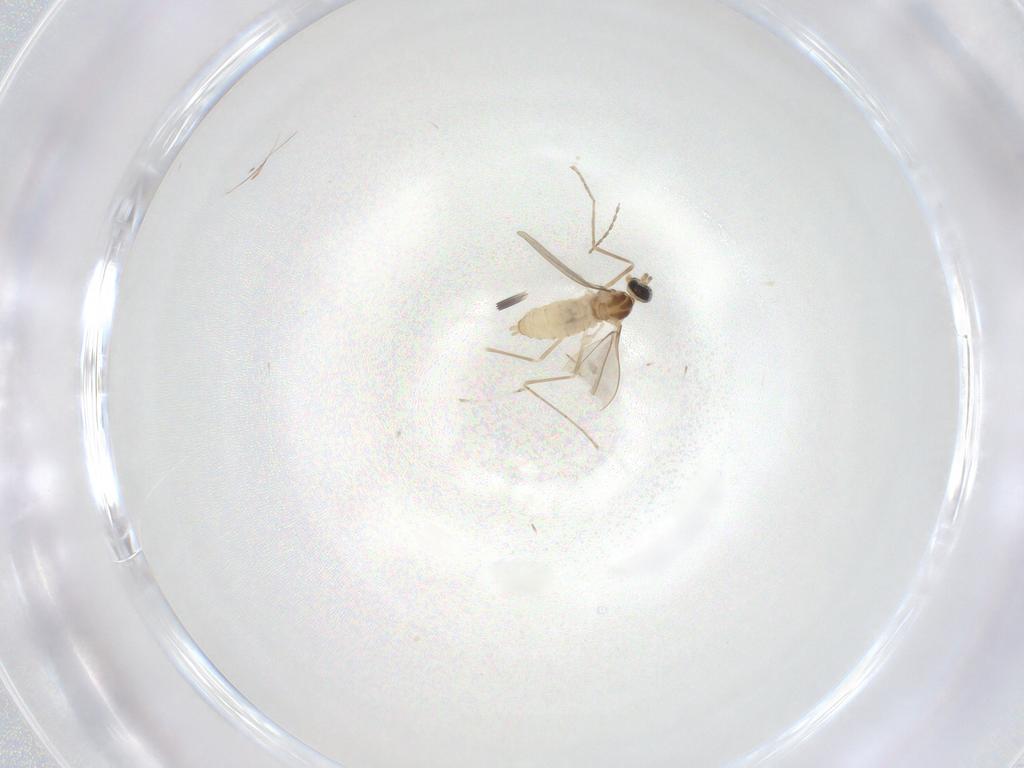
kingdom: Animalia
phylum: Arthropoda
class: Insecta
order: Diptera
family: Cecidomyiidae
